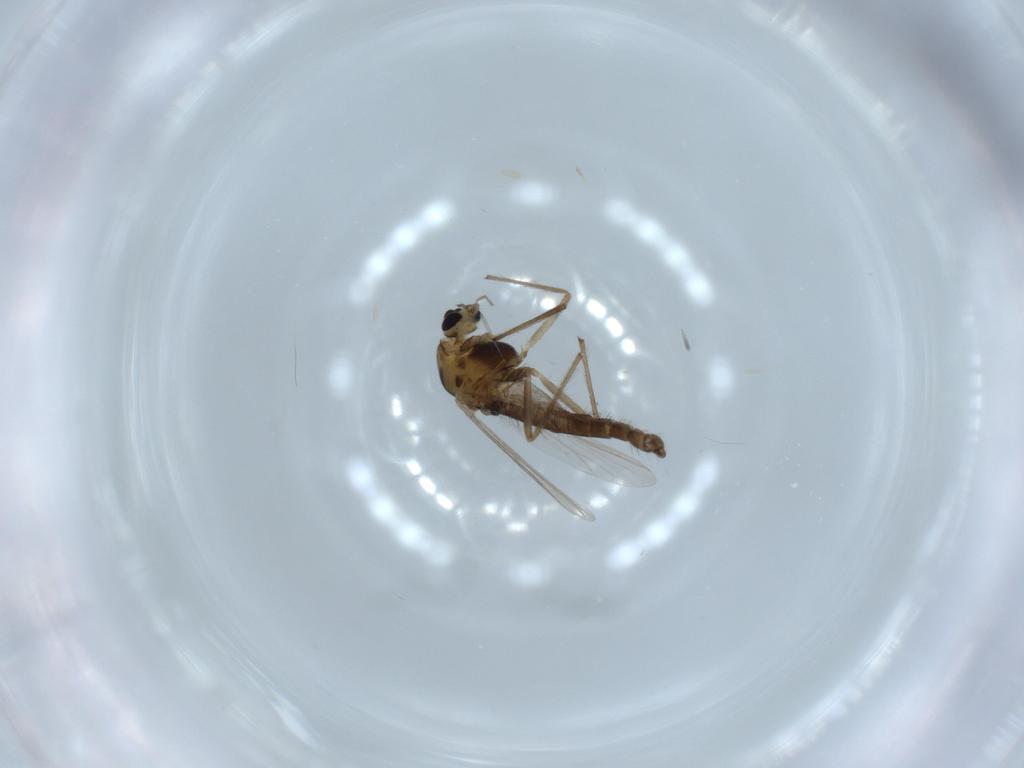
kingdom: Animalia
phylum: Arthropoda
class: Insecta
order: Diptera
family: Chironomidae
